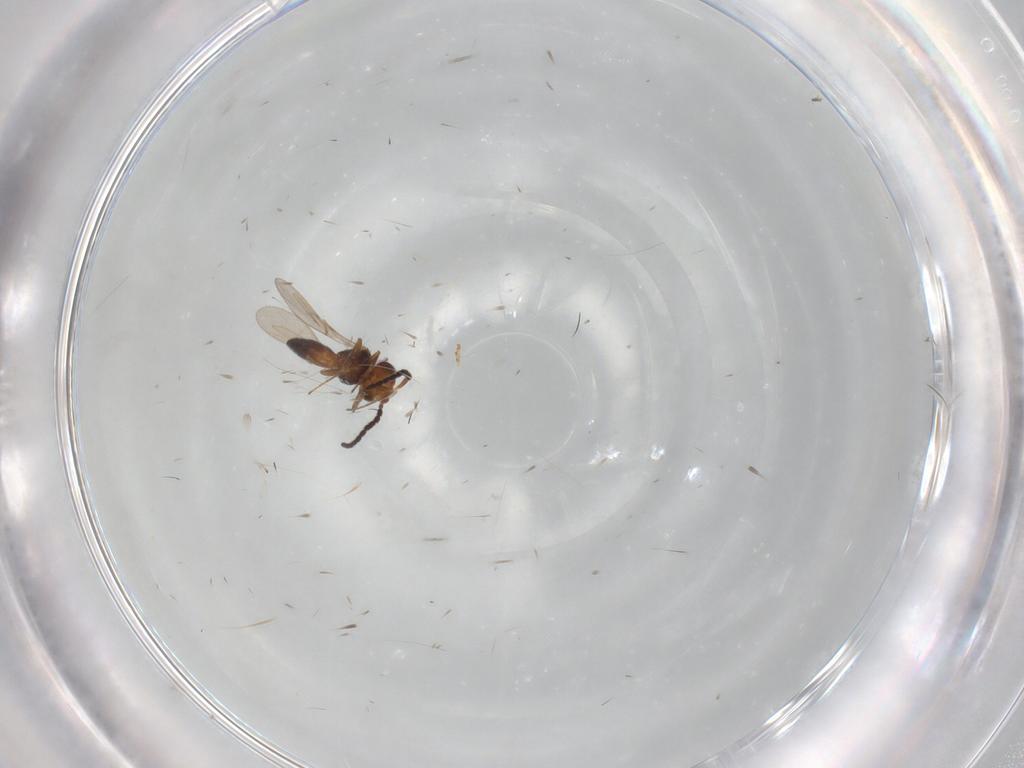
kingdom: Animalia
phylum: Arthropoda
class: Insecta
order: Hymenoptera
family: Scelionidae
